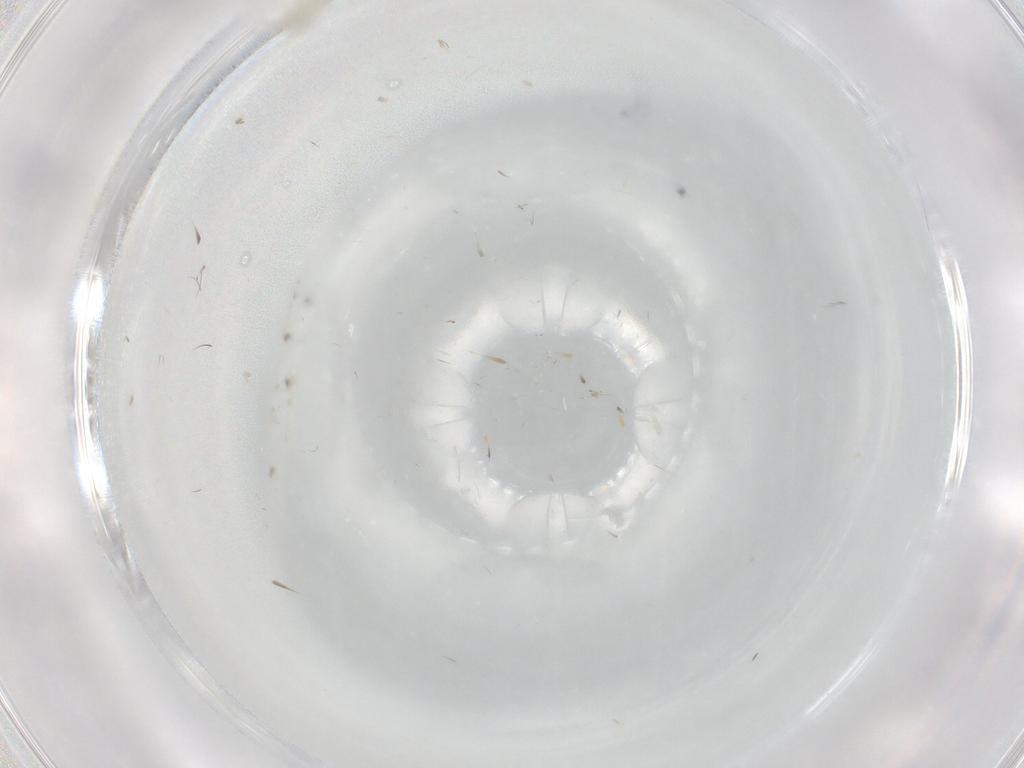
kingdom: Animalia
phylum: Arthropoda
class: Insecta
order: Diptera
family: Cecidomyiidae
